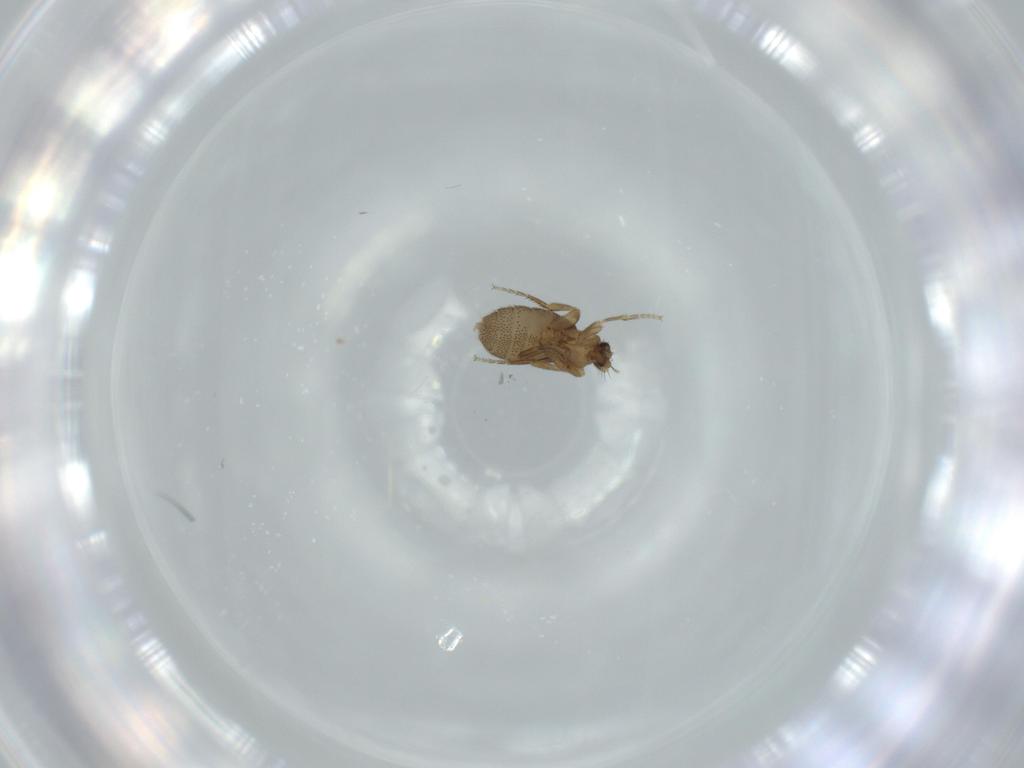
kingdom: Animalia
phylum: Arthropoda
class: Insecta
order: Diptera
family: Phoridae
